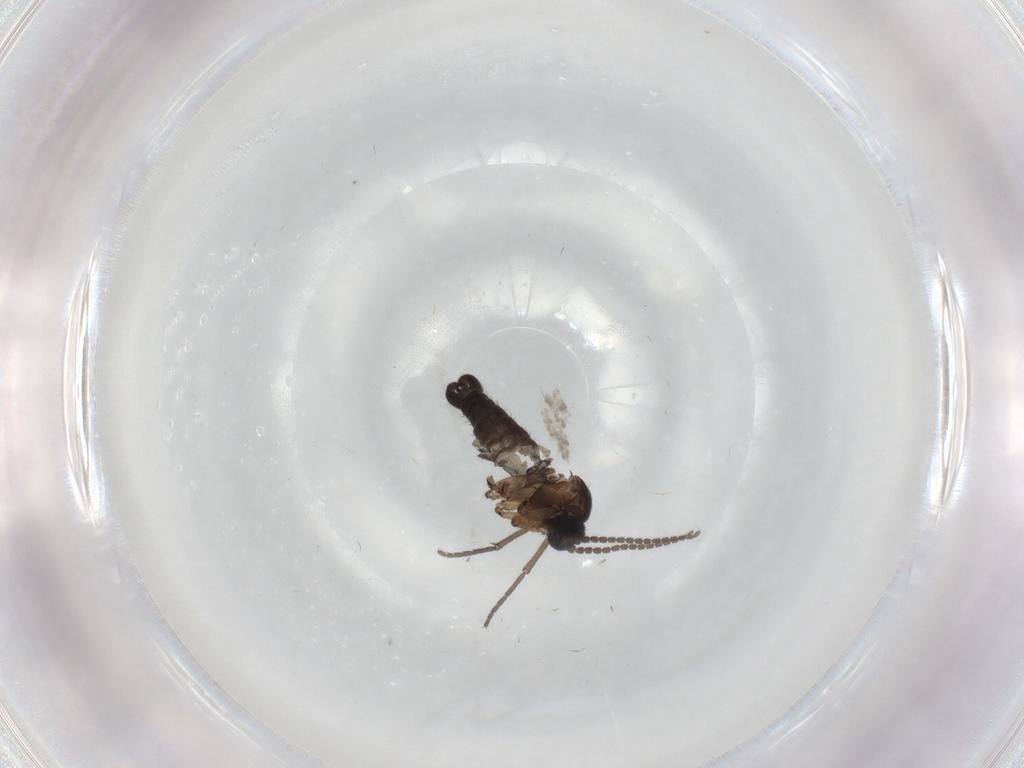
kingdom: Animalia
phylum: Arthropoda
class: Insecta
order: Diptera
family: Sciaridae
